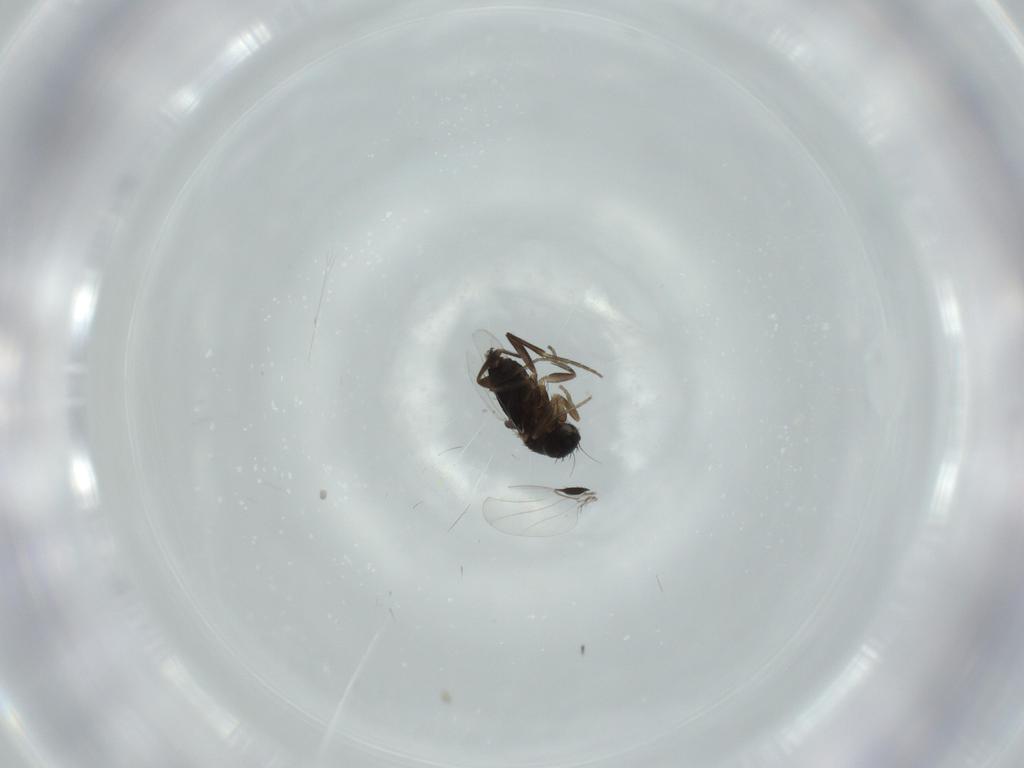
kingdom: Animalia
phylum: Arthropoda
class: Insecta
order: Diptera
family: Phoridae
